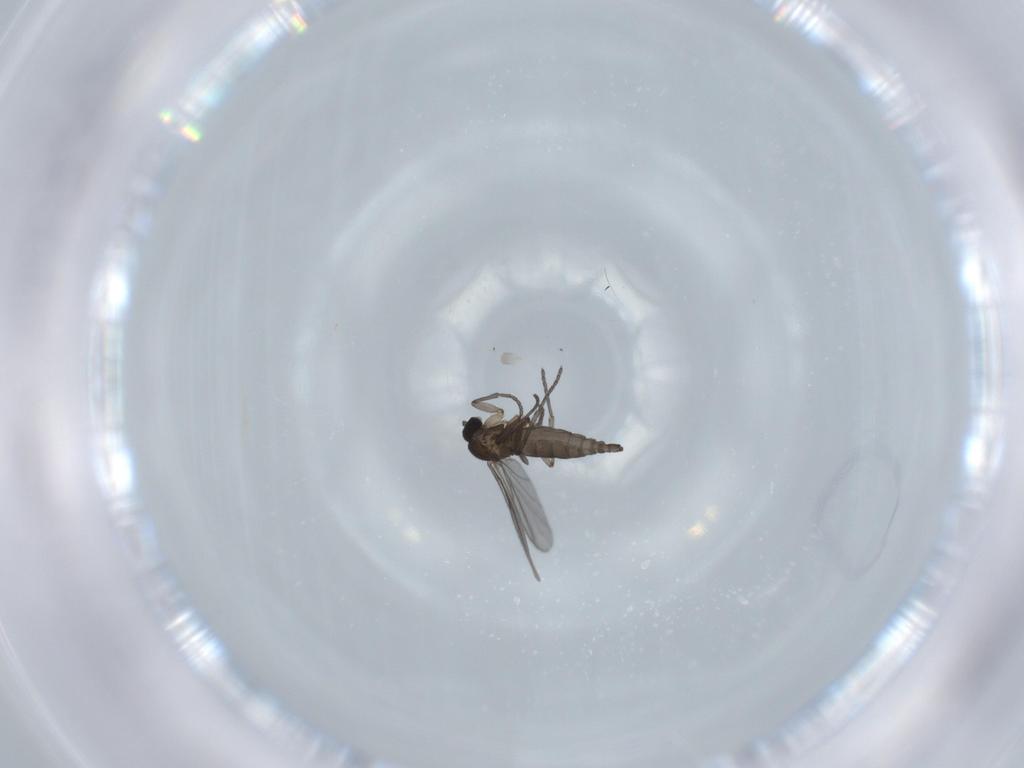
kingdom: Animalia
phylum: Arthropoda
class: Insecta
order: Diptera
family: Sciaridae
